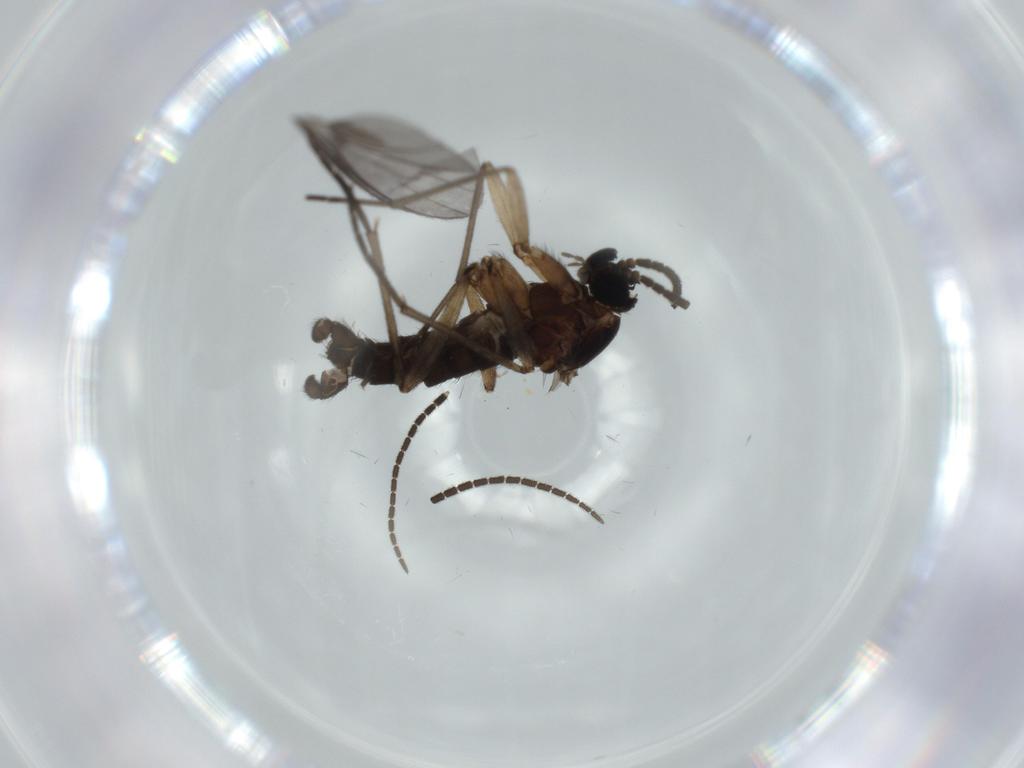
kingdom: Animalia
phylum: Arthropoda
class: Insecta
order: Diptera
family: Sciaridae
